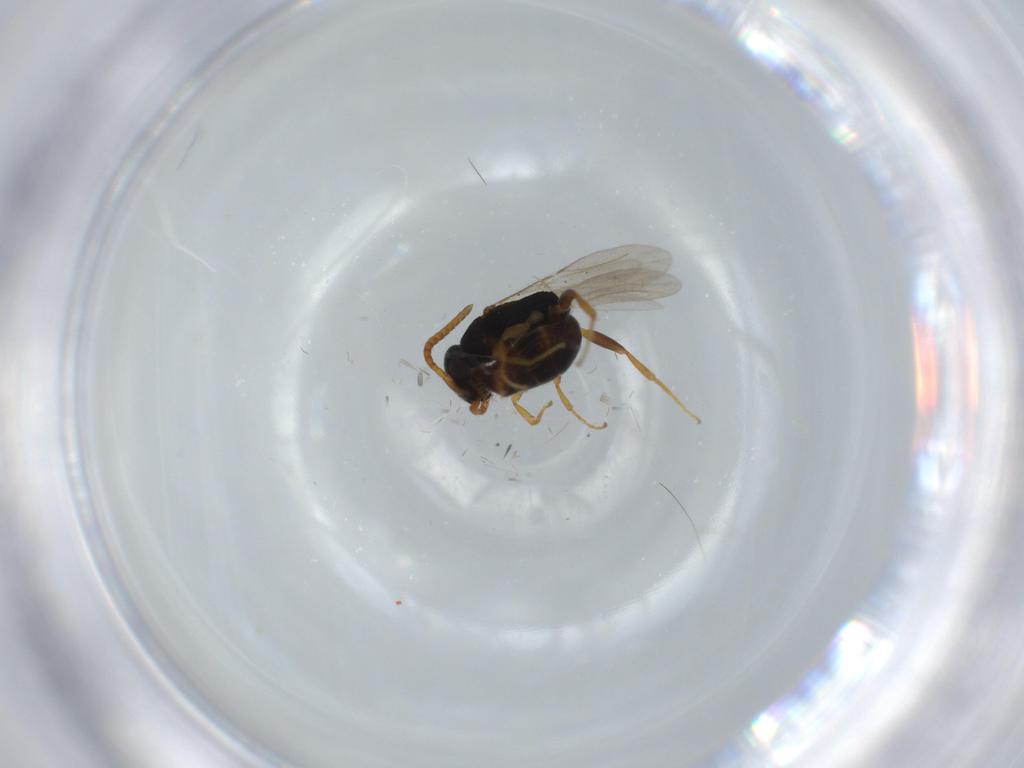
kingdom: Animalia
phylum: Arthropoda
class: Insecta
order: Hymenoptera
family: Bethylidae
